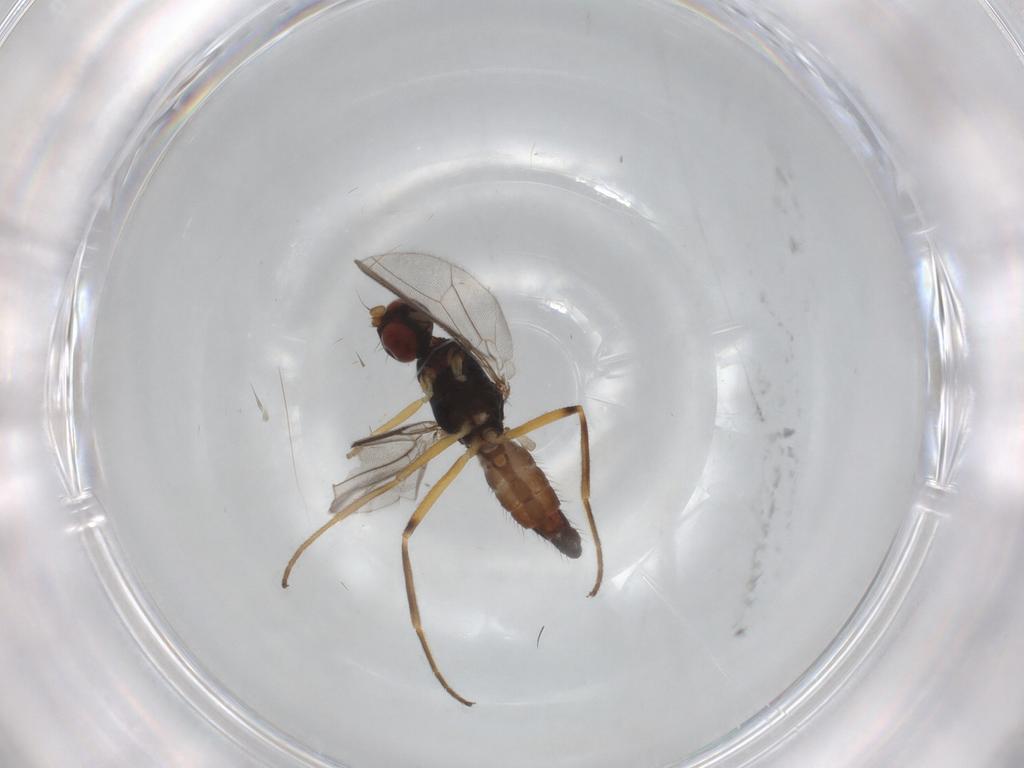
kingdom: Animalia
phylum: Arthropoda
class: Insecta
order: Diptera
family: Cecidomyiidae
